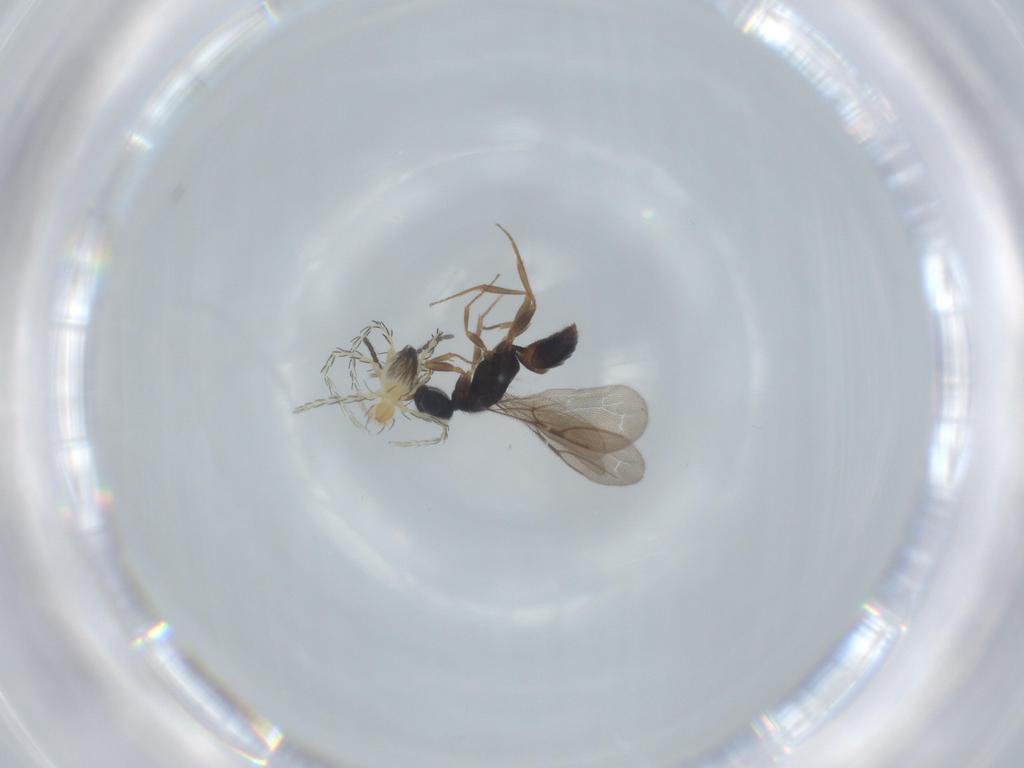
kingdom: Animalia
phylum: Arthropoda
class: Arachnida
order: Trombidiformes
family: Erythraeidae
